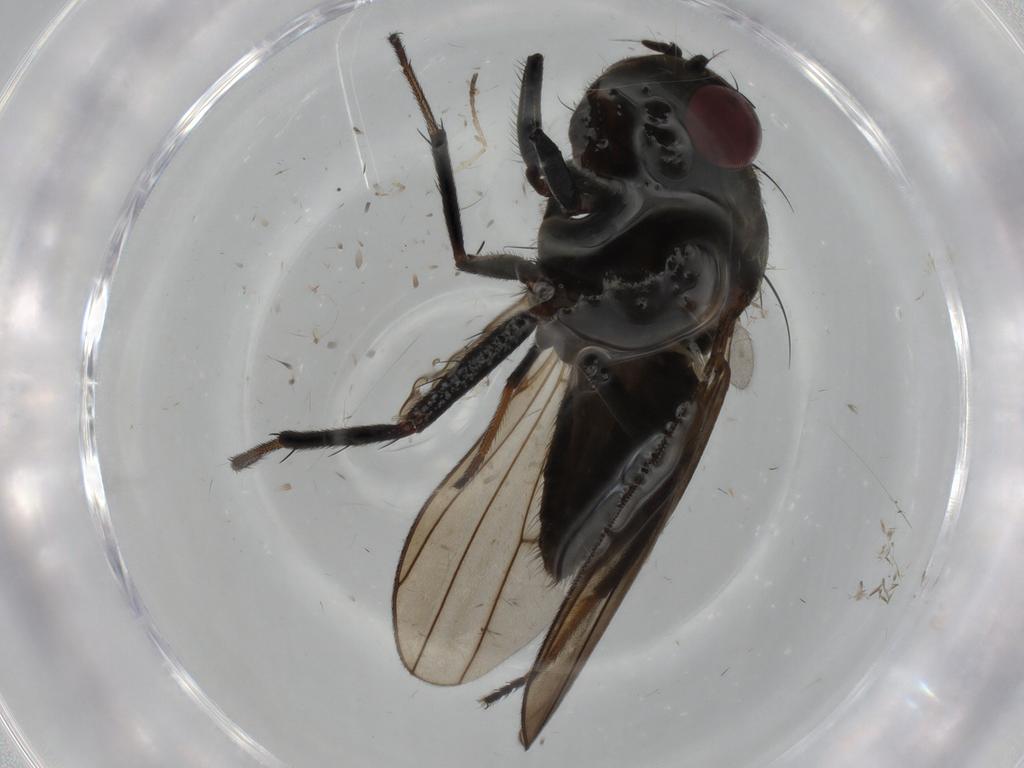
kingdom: Animalia
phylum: Arthropoda
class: Insecta
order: Diptera
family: Ephydridae
